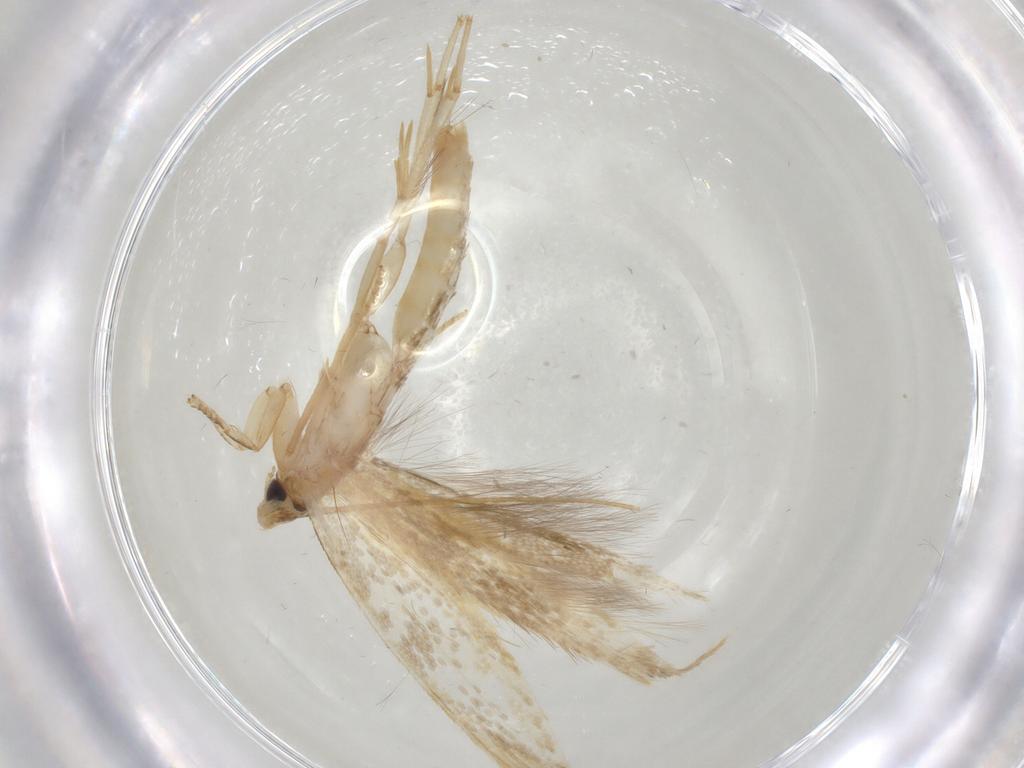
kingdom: Animalia
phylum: Arthropoda
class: Insecta
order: Lepidoptera
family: Tineidae
